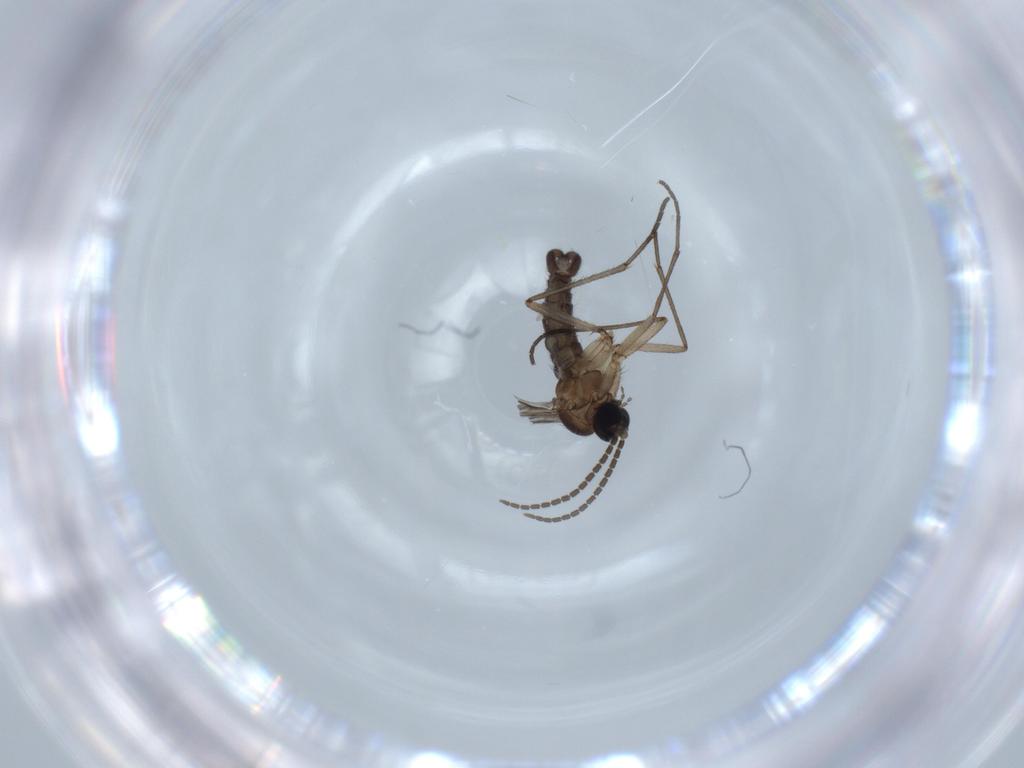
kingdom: Animalia
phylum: Arthropoda
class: Insecta
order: Diptera
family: Sciaridae
